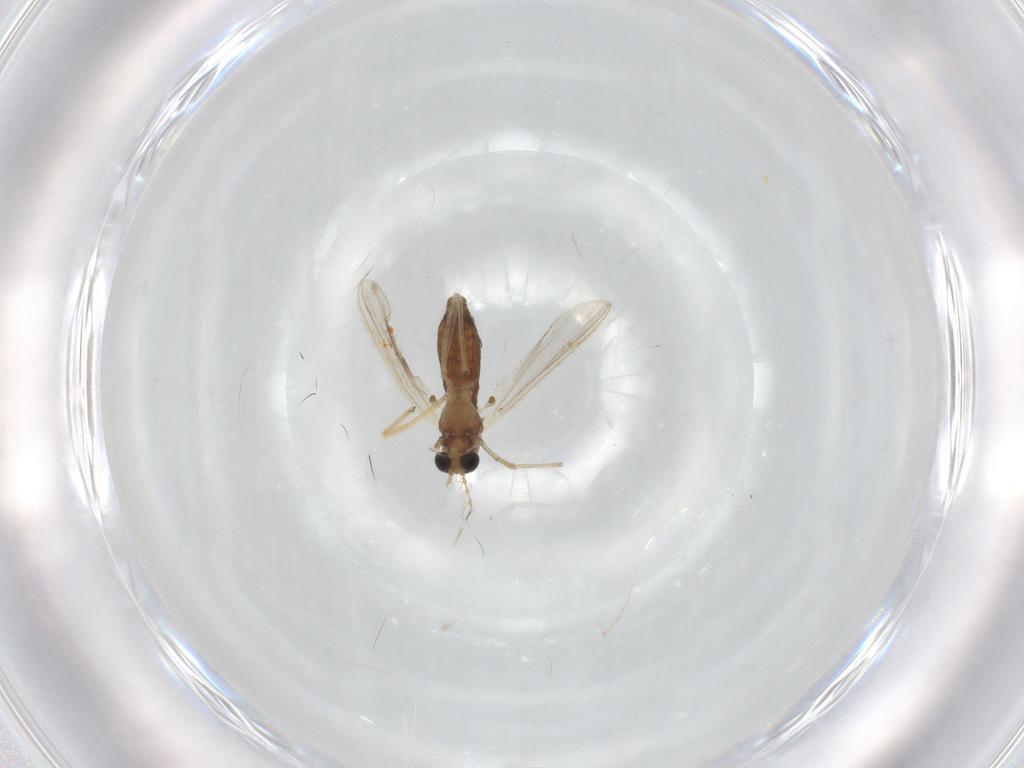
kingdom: Animalia
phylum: Arthropoda
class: Insecta
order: Diptera
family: Chironomidae
